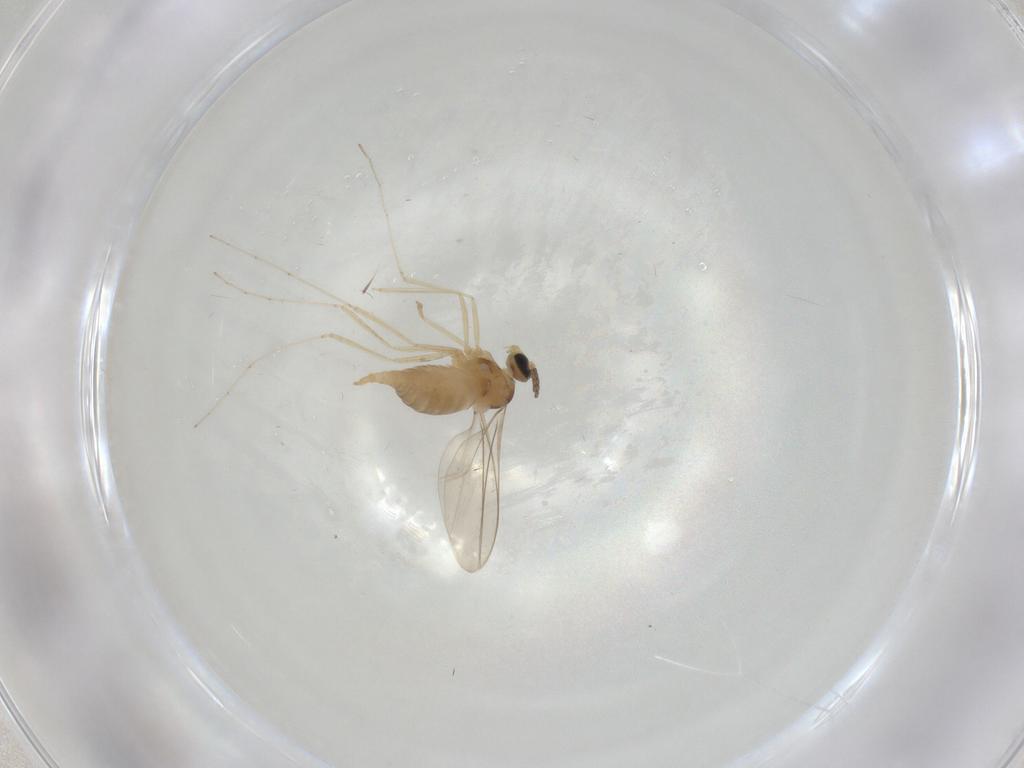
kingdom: Animalia
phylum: Arthropoda
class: Insecta
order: Diptera
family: Cecidomyiidae
